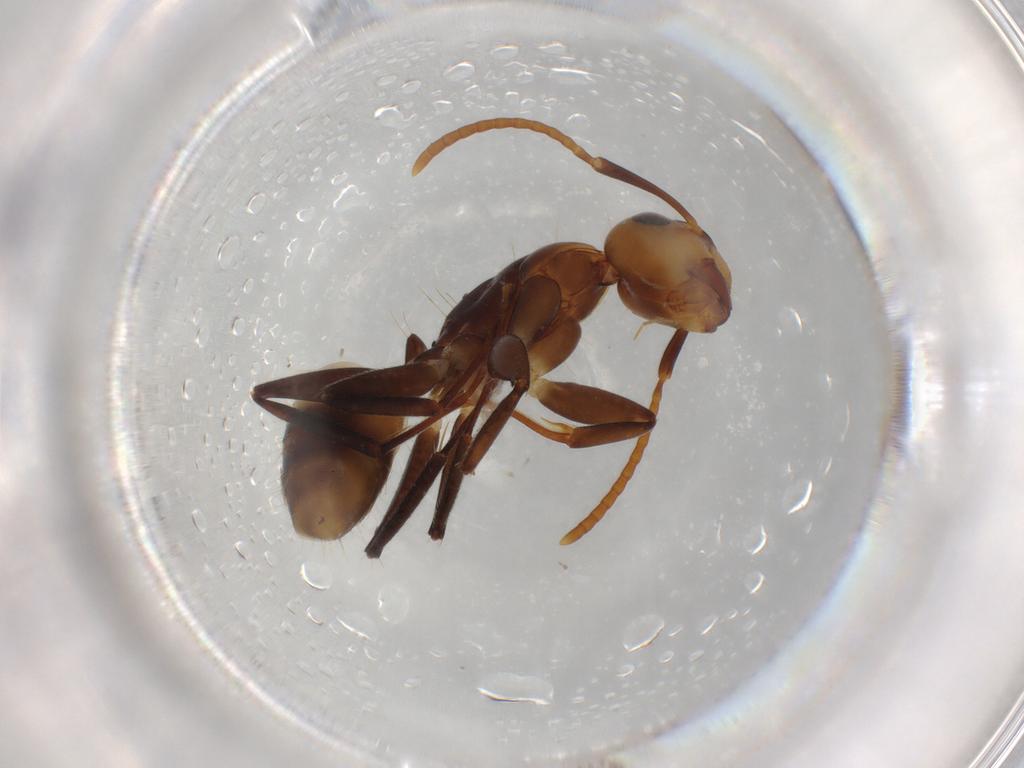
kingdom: Animalia
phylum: Arthropoda
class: Insecta
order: Hymenoptera
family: Formicidae
